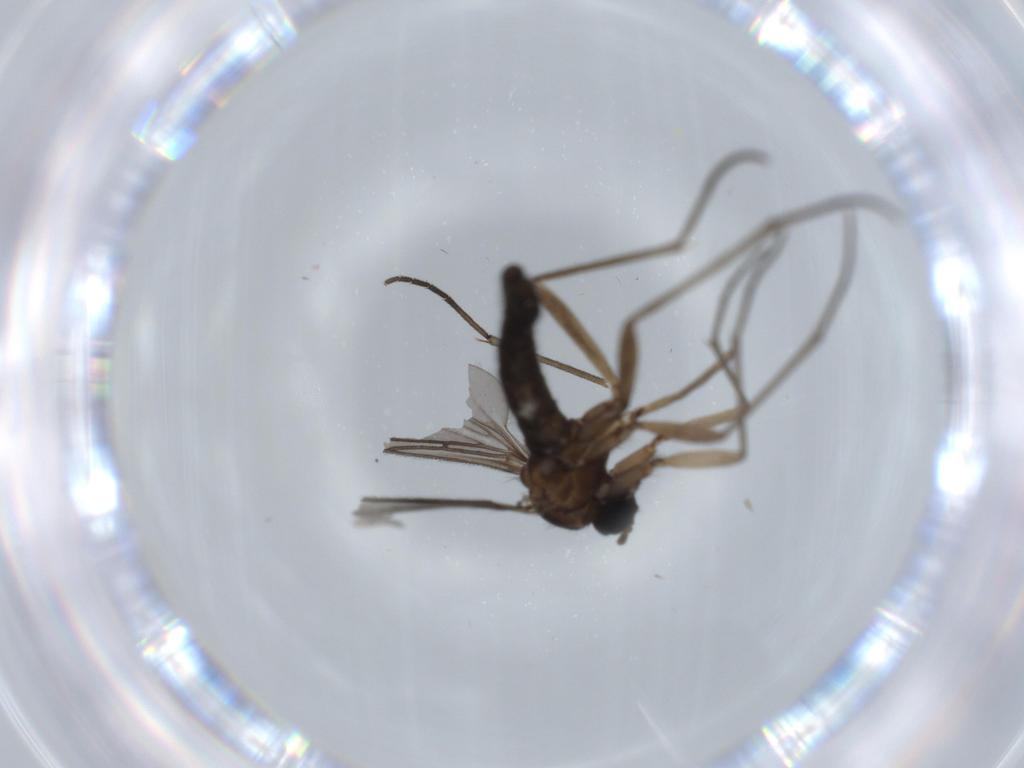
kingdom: Animalia
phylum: Arthropoda
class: Insecta
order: Diptera
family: Sciaridae
